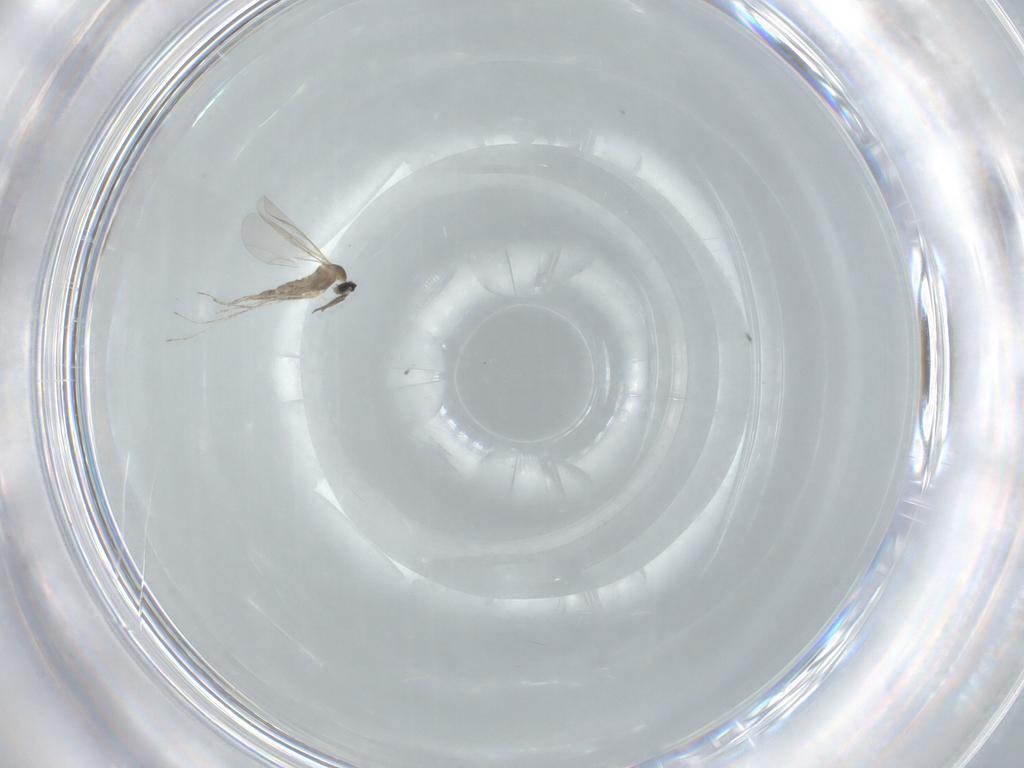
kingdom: Animalia
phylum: Arthropoda
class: Insecta
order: Diptera
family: Cecidomyiidae
